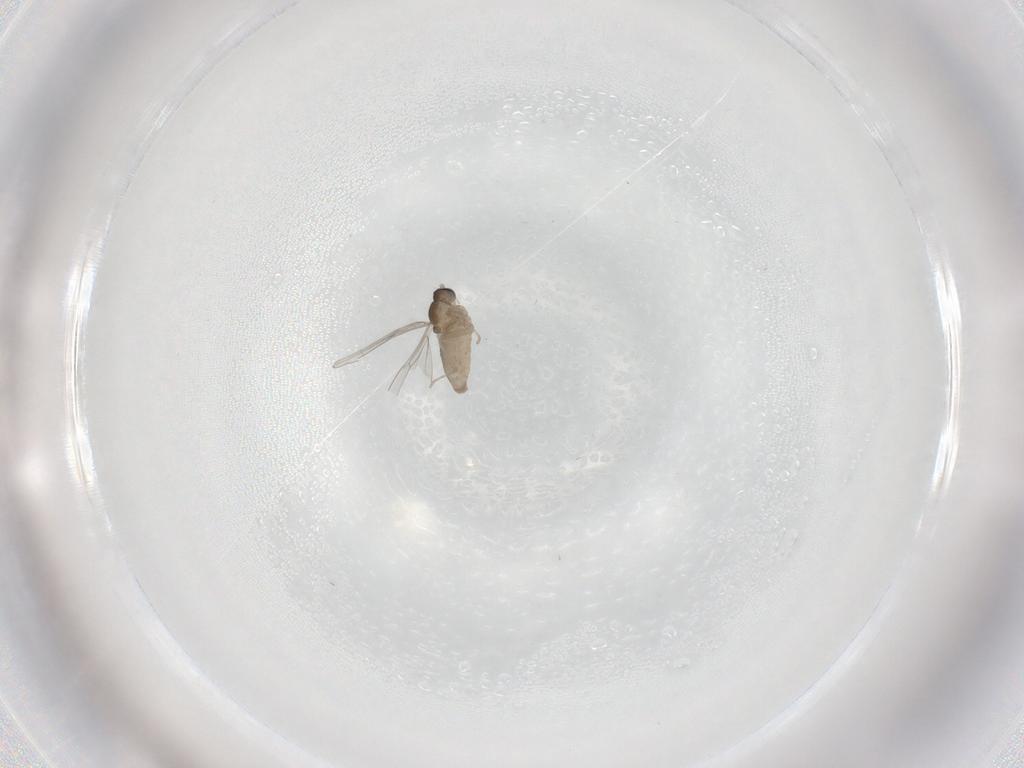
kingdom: Animalia
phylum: Arthropoda
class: Insecta
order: Diptera
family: Cecidomyiidae
